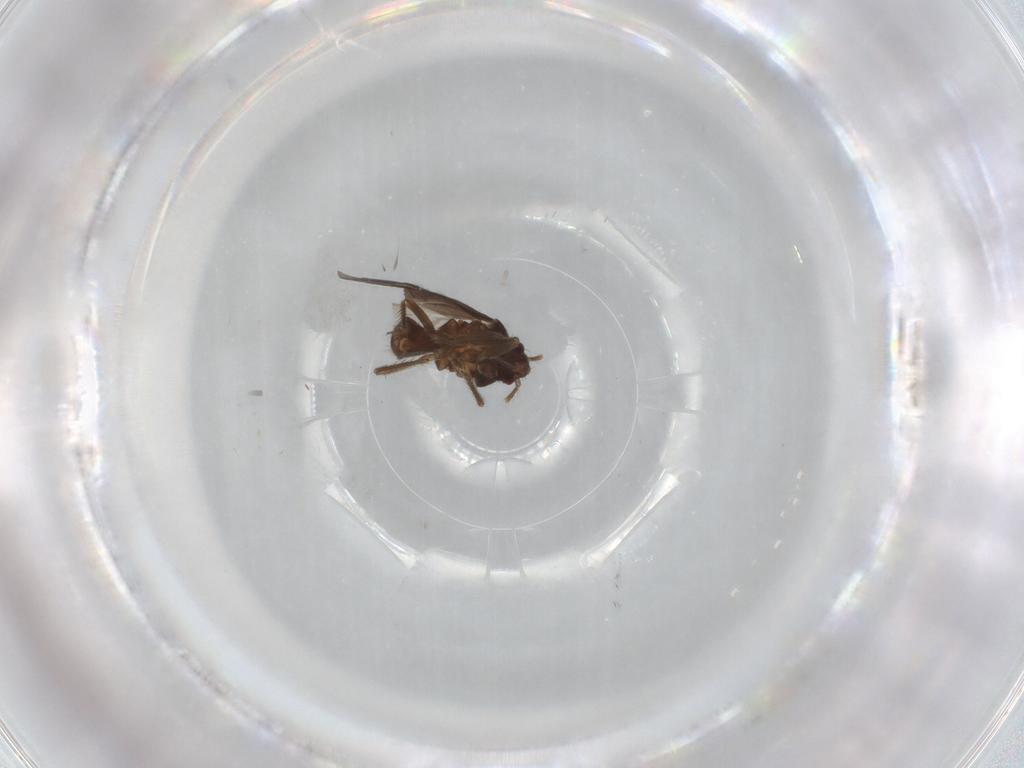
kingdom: Animalia
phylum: Arthropoda
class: Insecta
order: Hemiptera
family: Ceratocombidae
